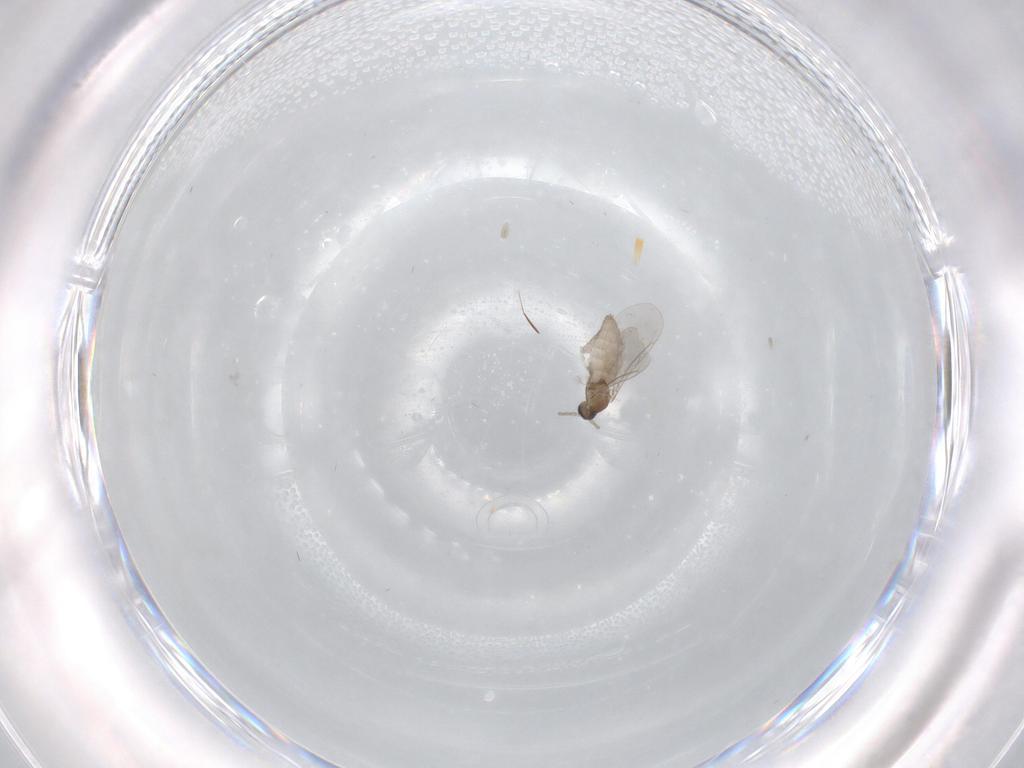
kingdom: Animalia
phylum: Arthropoda
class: Insecta
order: Diptera
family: Cecidomyiidae
